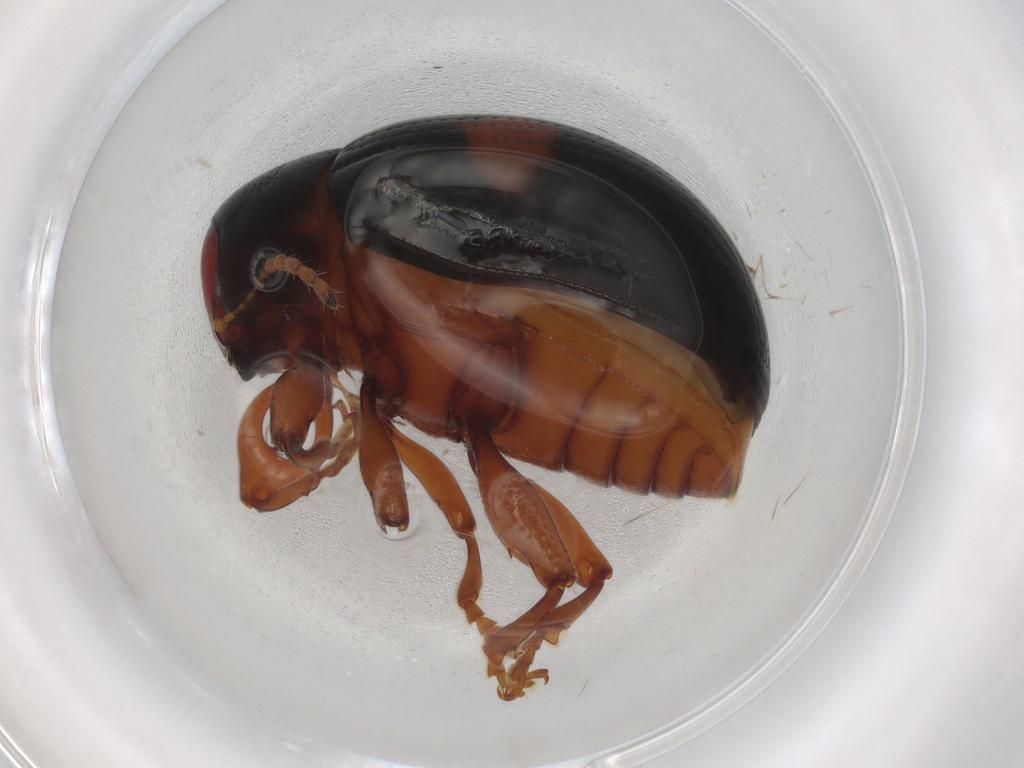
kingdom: Animalia
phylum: Arthropoda
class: Insecta
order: Coleoptera
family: Chrysomelidae
